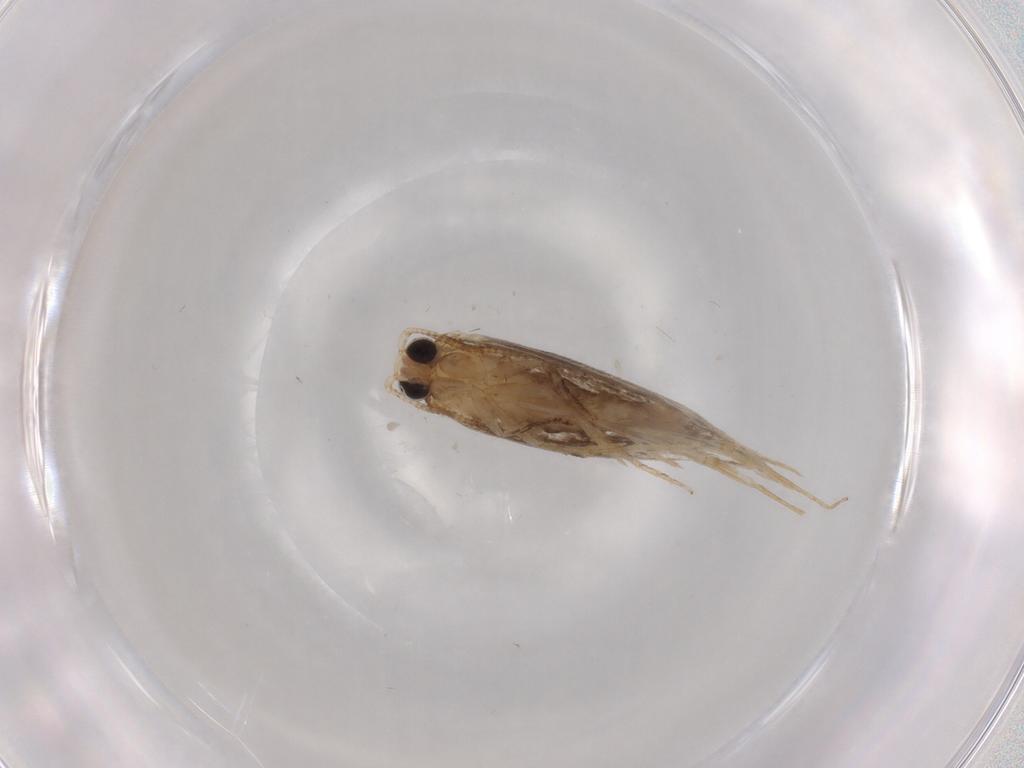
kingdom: Animalia
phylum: Arthropoda
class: Insecta
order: Lepidoptera
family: Tineidae
